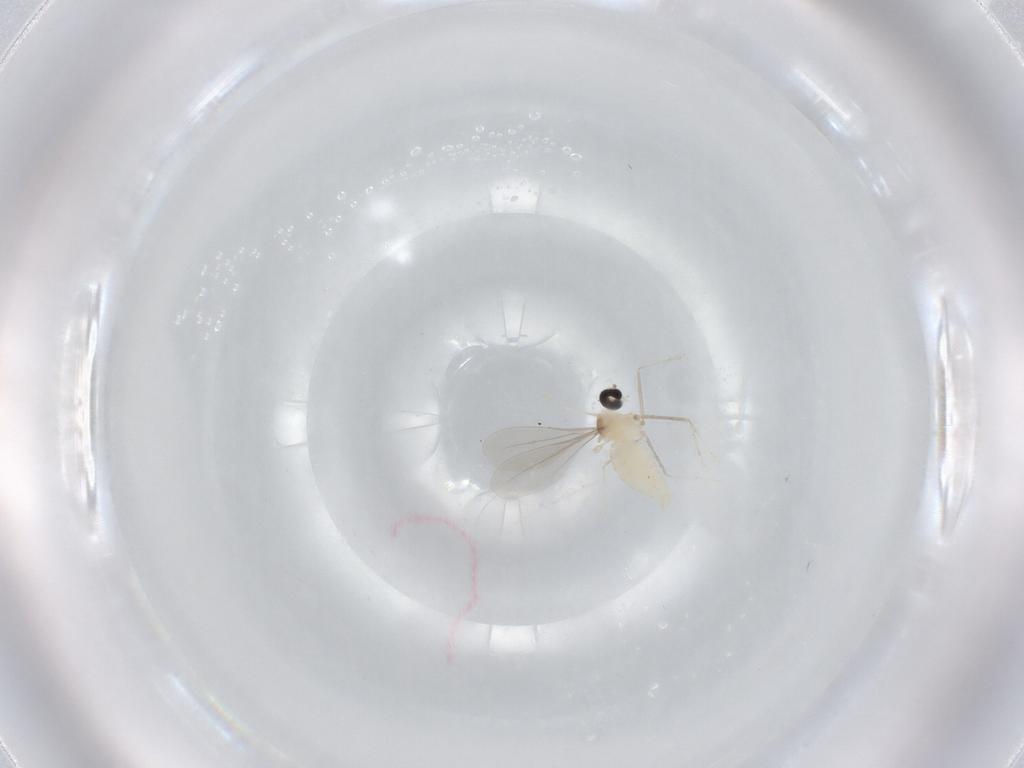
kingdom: Animalia
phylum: Arthropoda
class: Insecta
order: Diptera
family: Cecidomyiidae
